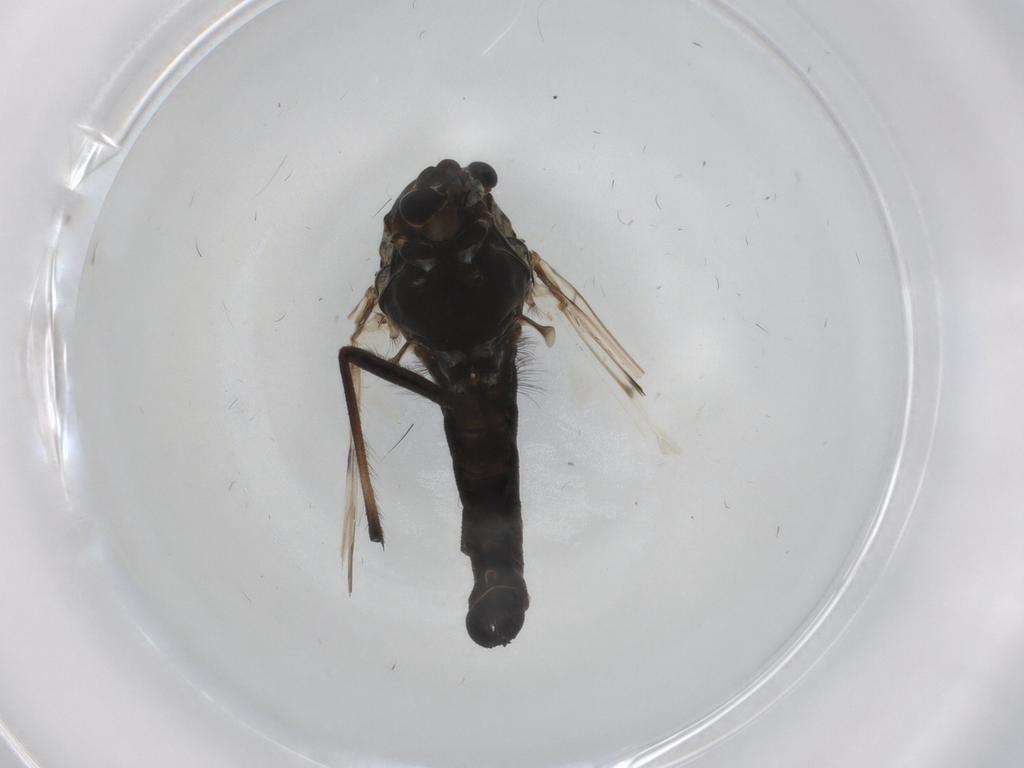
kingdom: Animalia
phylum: Arthropoda
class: Insecta
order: Diptera
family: Chironomidae
